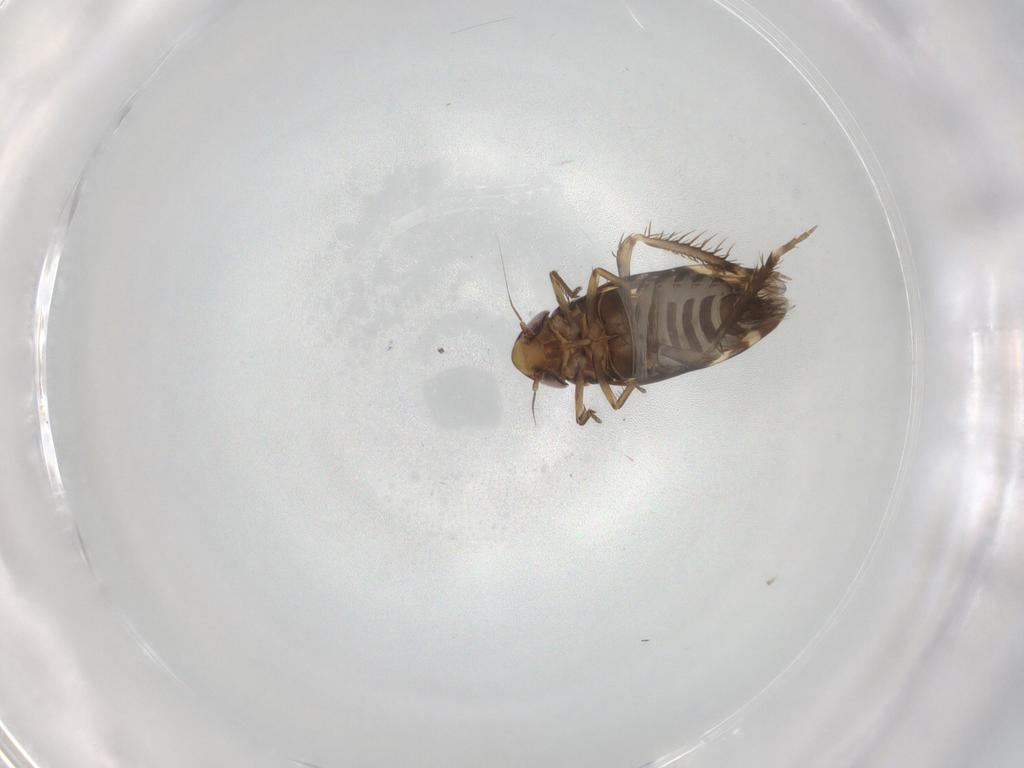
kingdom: Animalia
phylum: Arthropoda
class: Insecta
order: Hemiptera
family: Cicadellidae
